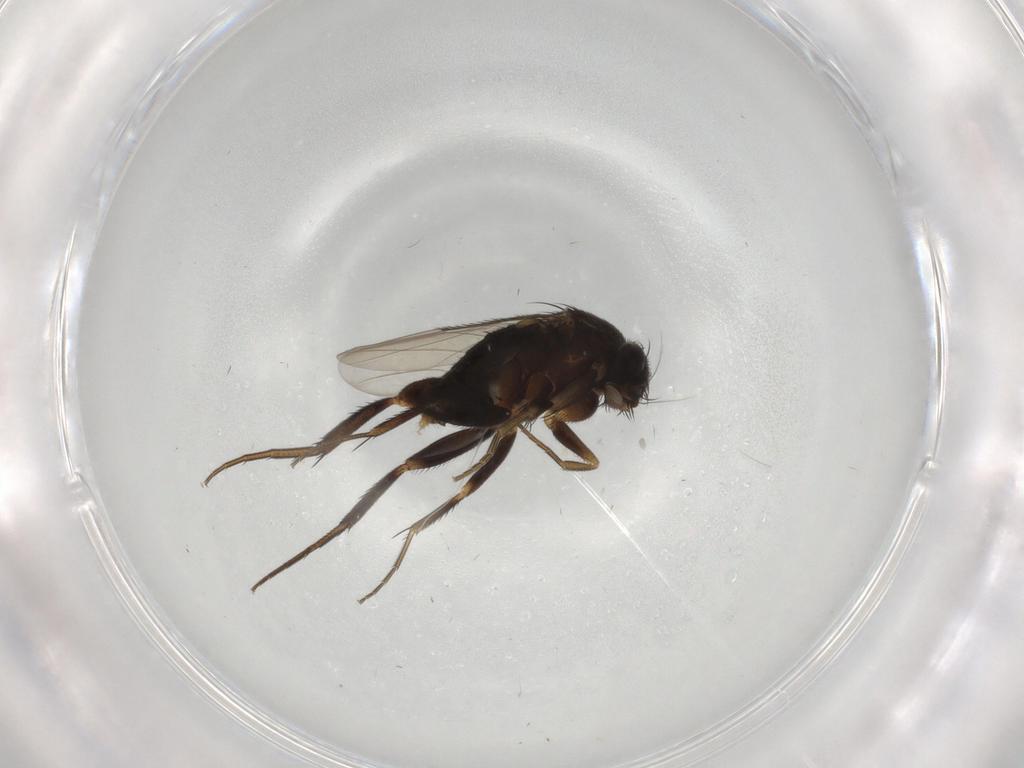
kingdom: Animalia
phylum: Arthropoda
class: Insecta
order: Diptera
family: Phoridae
